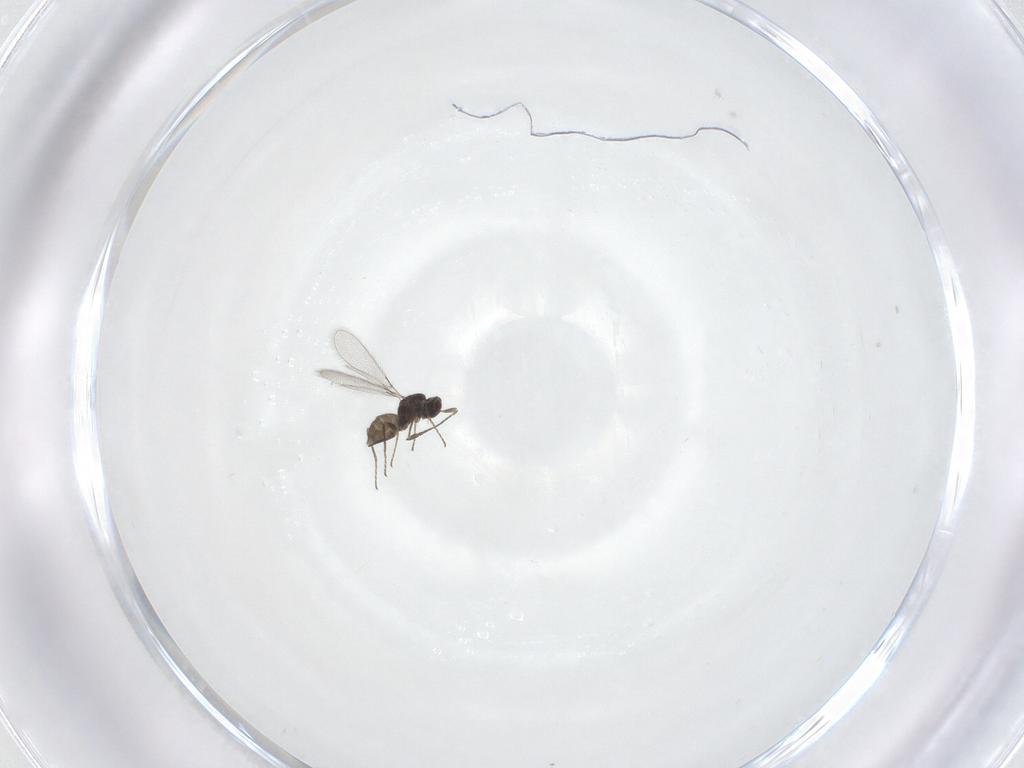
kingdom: Animalia
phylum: Arthropoda
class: Insecta
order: Hymenoptera
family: Mymaridae
